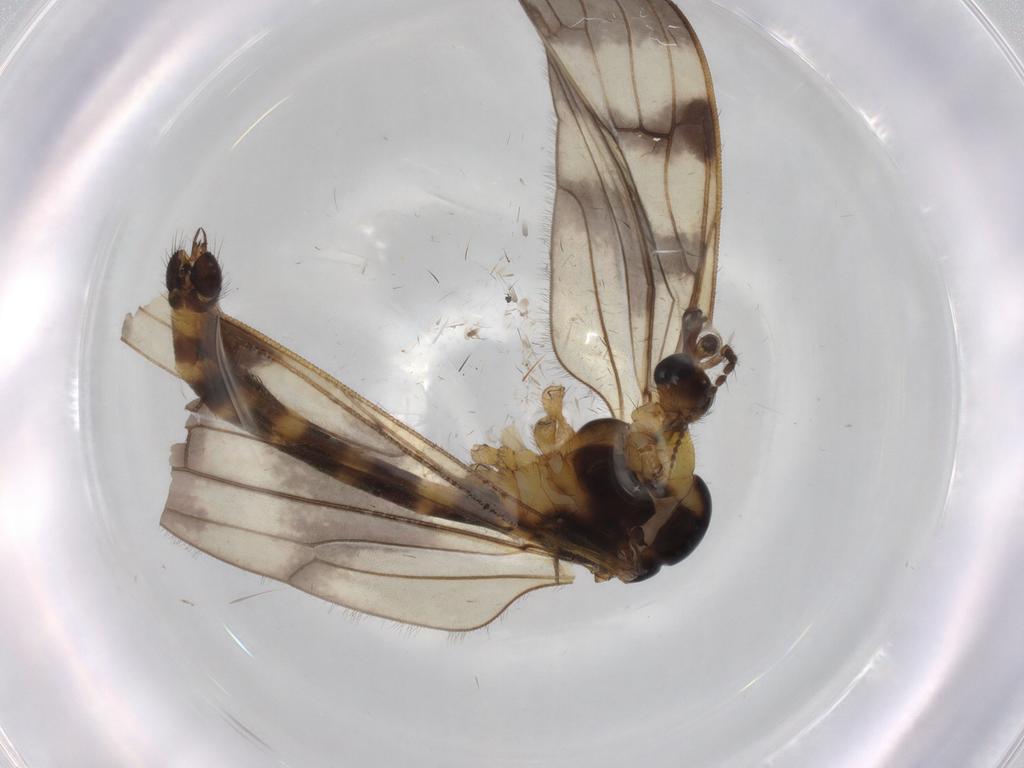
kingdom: Animalia
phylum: Arthropoda
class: Insecta
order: Diptera
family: Limoniidae
